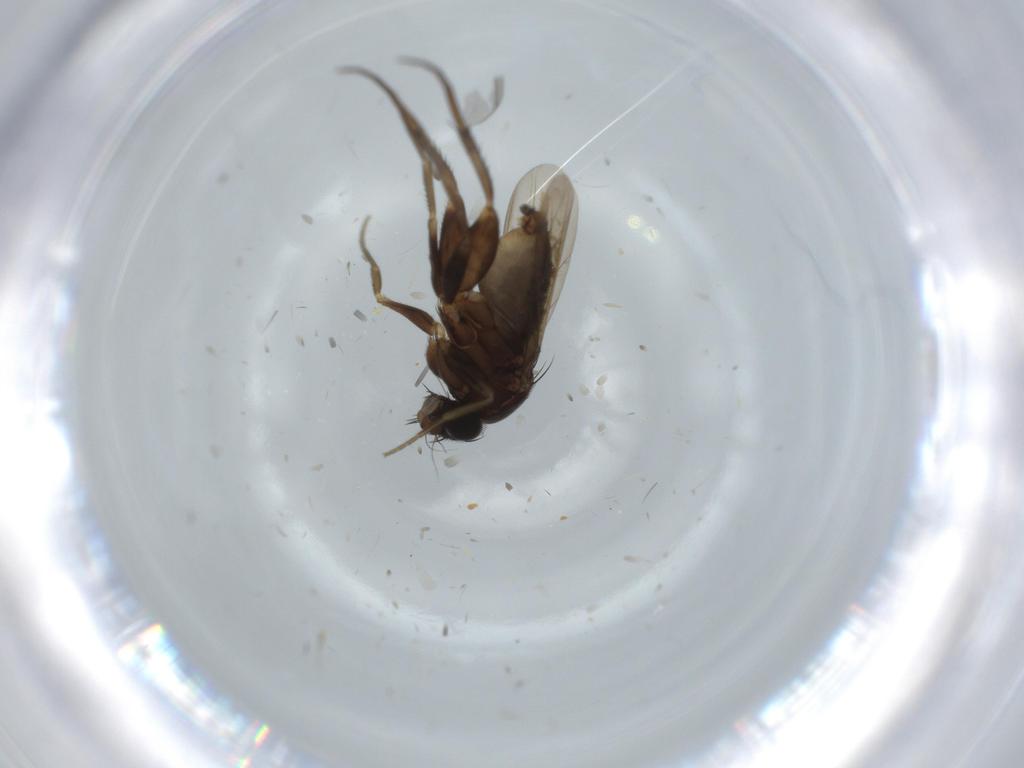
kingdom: Animalia
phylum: Arthropoda
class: Insecta
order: Diptera
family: Phoridae
